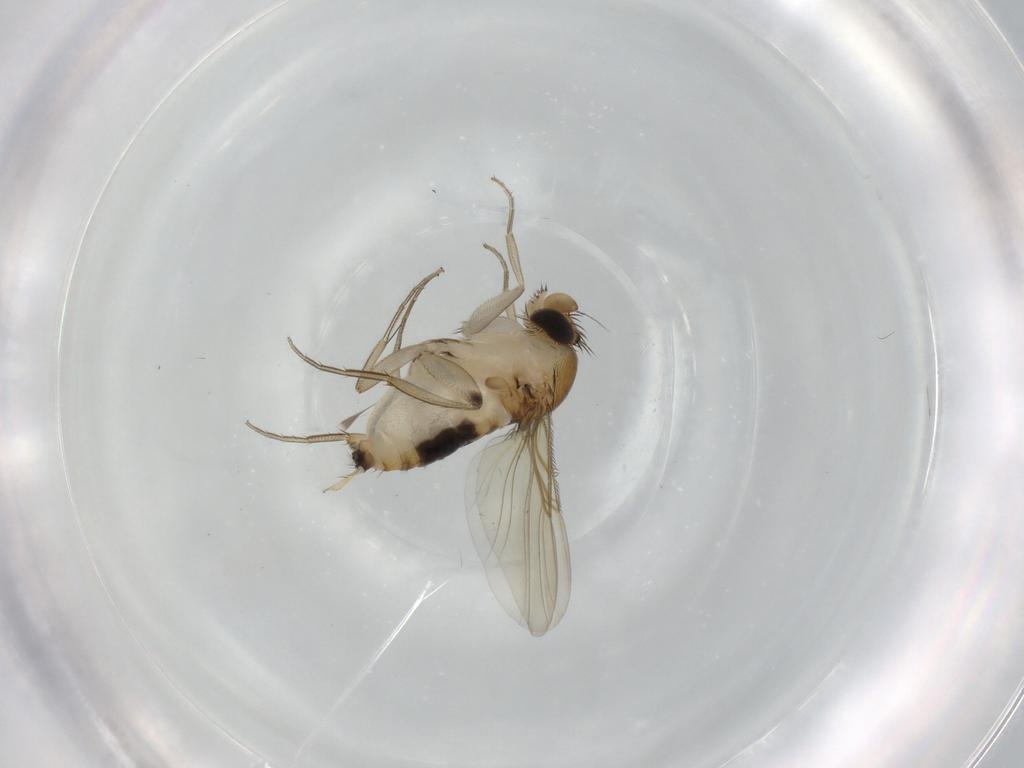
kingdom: Animalia
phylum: Arthropoda
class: Insecta
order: Diptera
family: Phoridae
